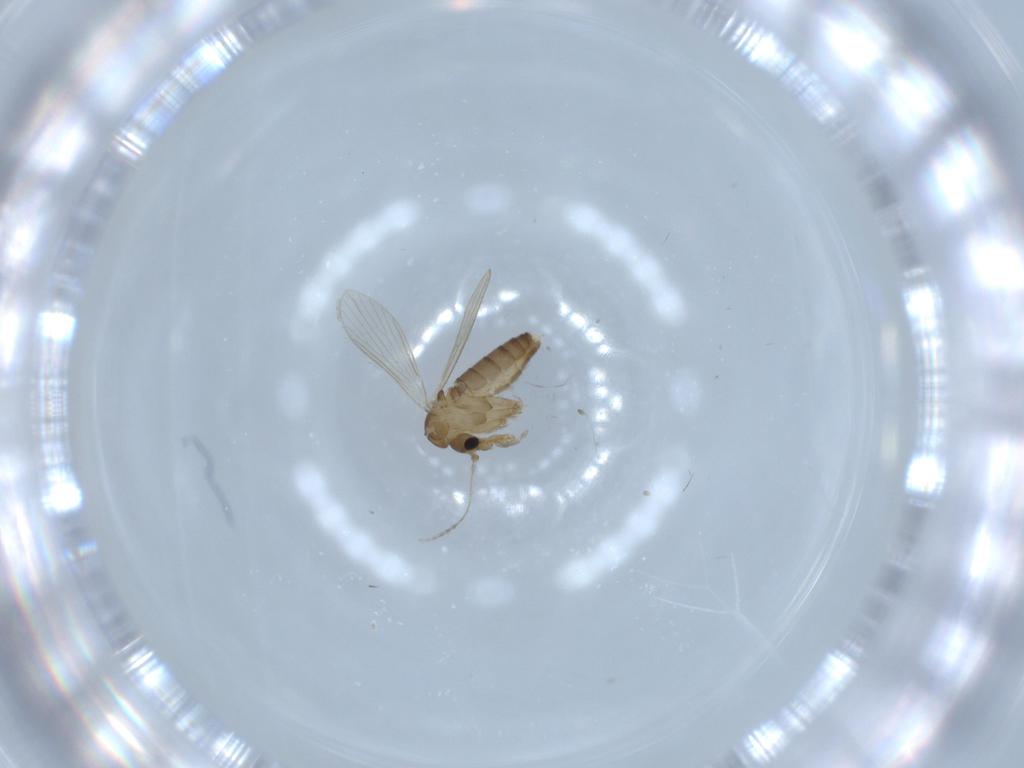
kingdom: Animalia
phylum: Arthropoda
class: Insecta
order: Diptera
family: Psychodidae
